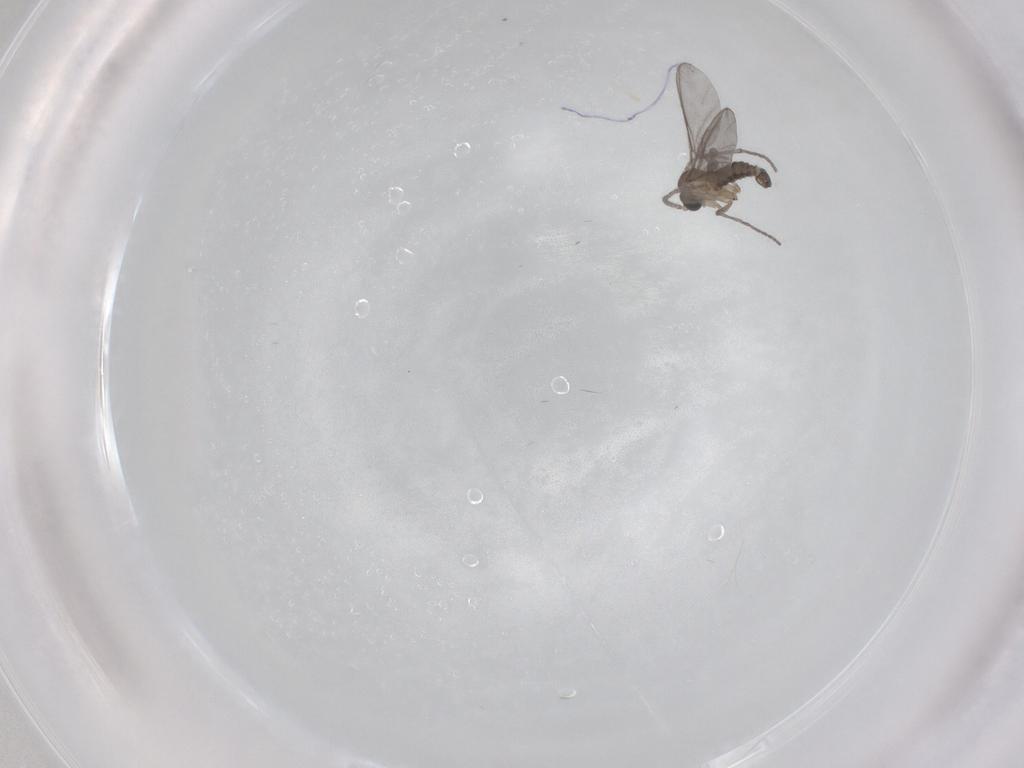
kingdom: Animalia
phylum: Arthropoda
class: Insecta
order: Diptera
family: Sciaridae
